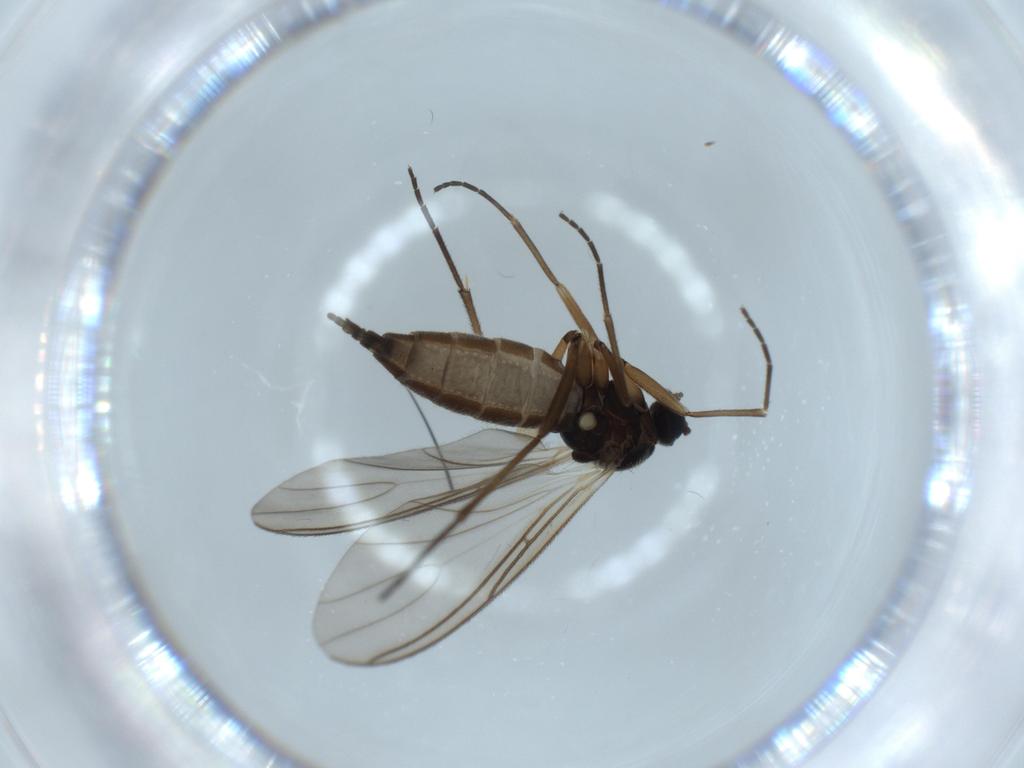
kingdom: Animalia
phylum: Arthropoda
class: Insecta
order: Diptera
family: Sciaridae
